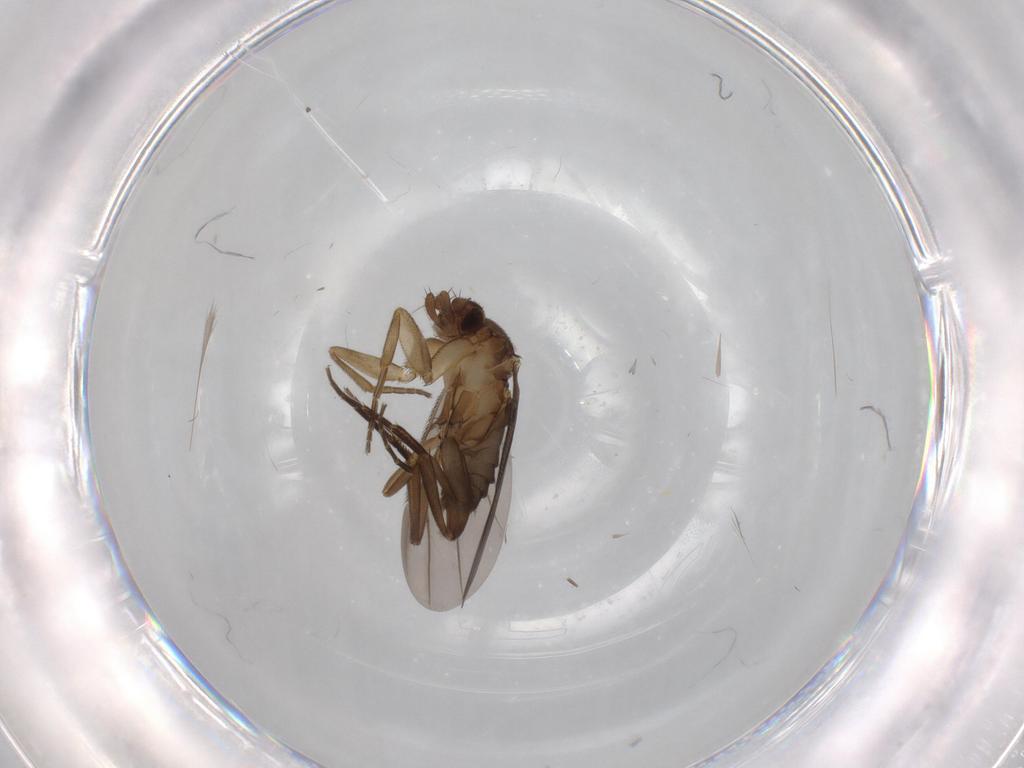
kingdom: Animalia
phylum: Arthropoda
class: Insecta
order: Diptera
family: Phoridae
